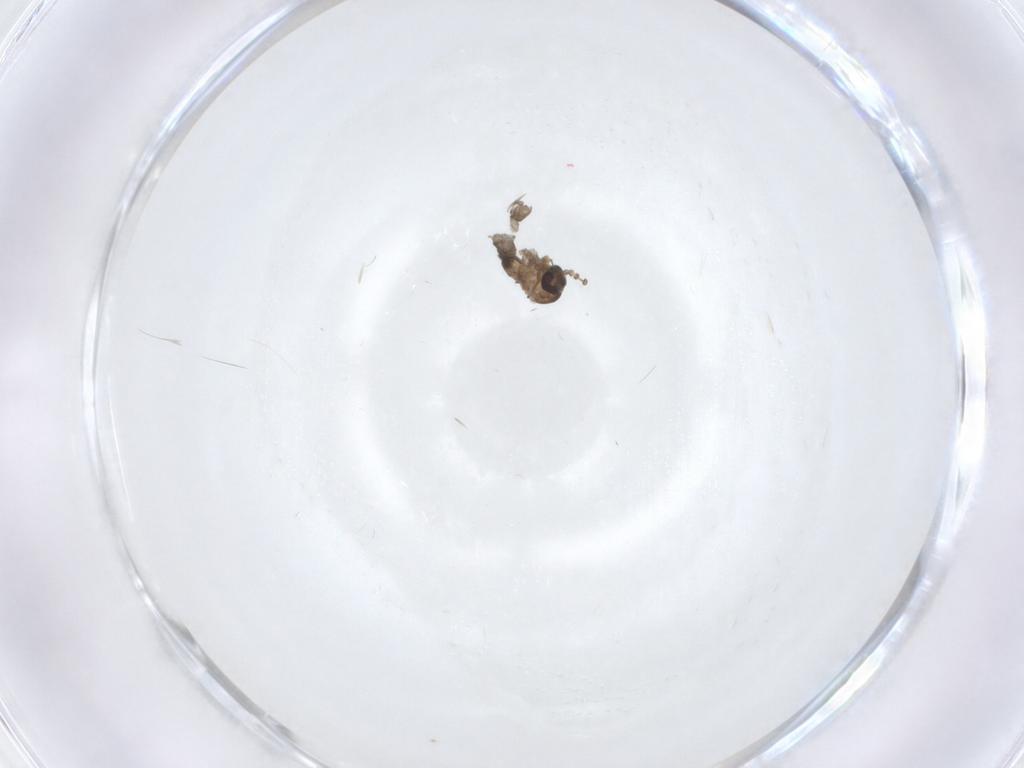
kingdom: Animalia
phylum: Arthropoda
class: Insecta
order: Diptera
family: Psychodidae
